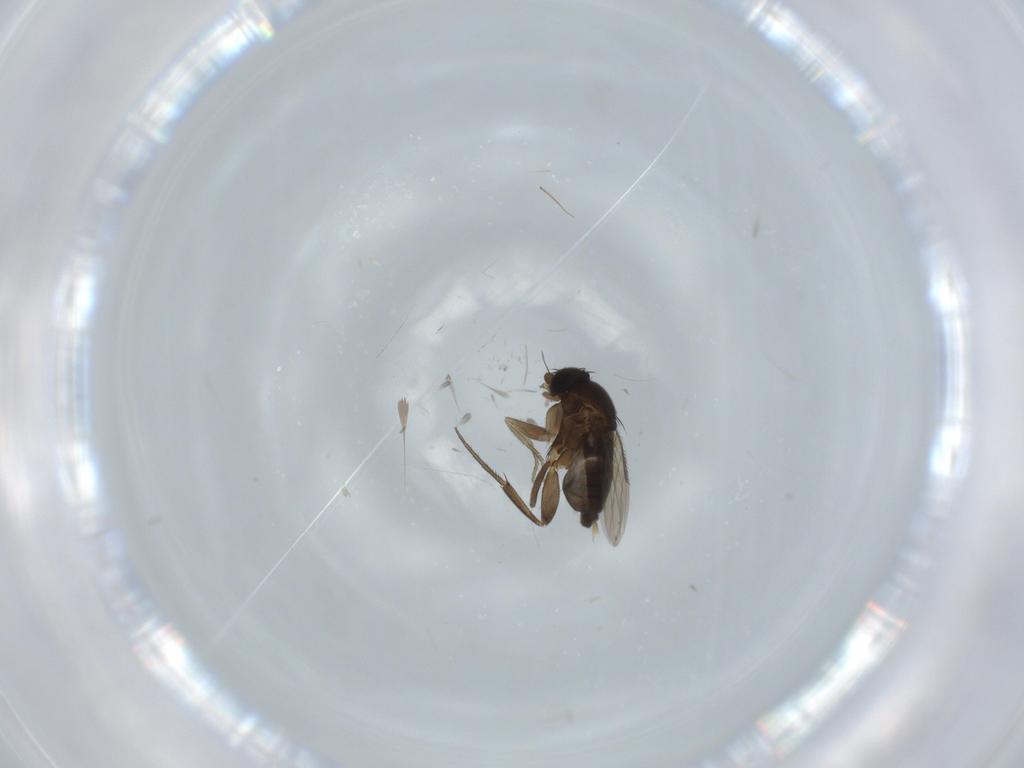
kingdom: Animalia
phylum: Arthropoda
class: Insecta
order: Diptera
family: Phoridae
